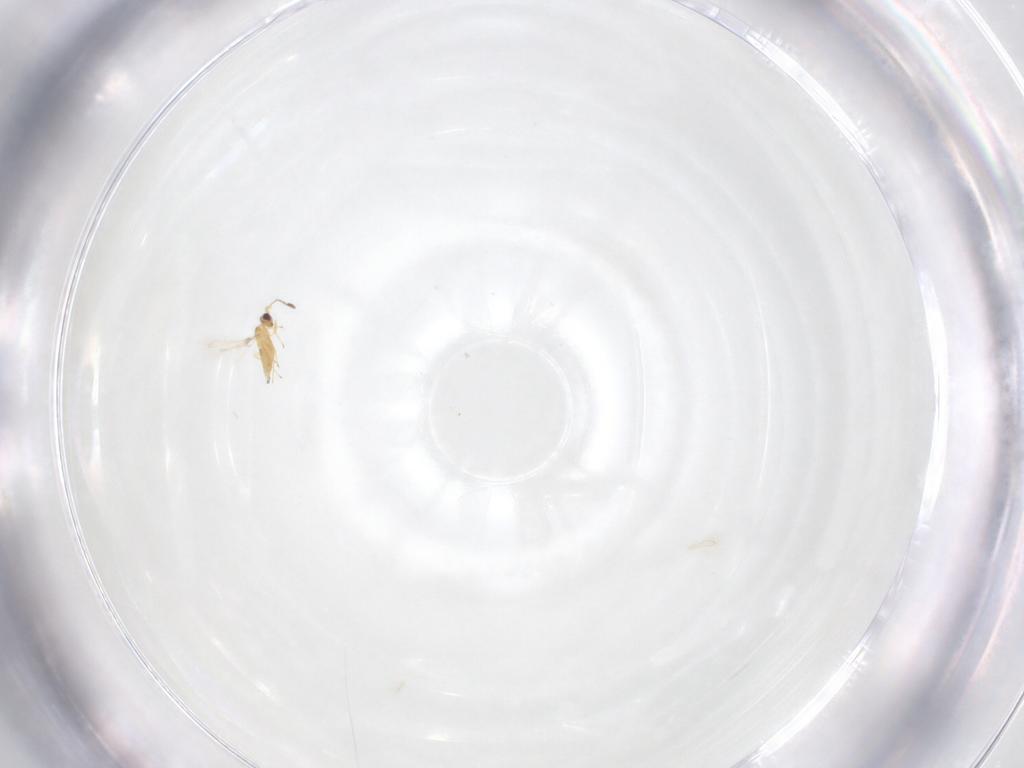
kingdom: Animalia
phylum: Arthropoda
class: Insecta
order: Hymenoptera
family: Mymaridae
